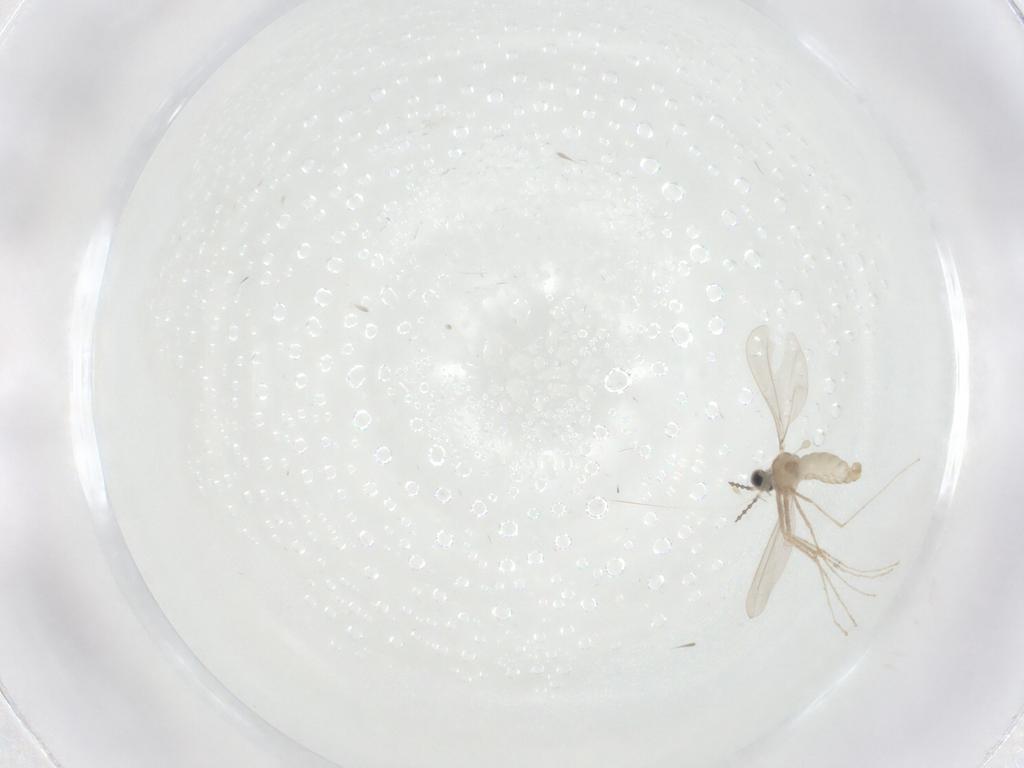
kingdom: Animalia
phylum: Arthropoda
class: Insecta
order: Diptera
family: Cecidomyiidae
